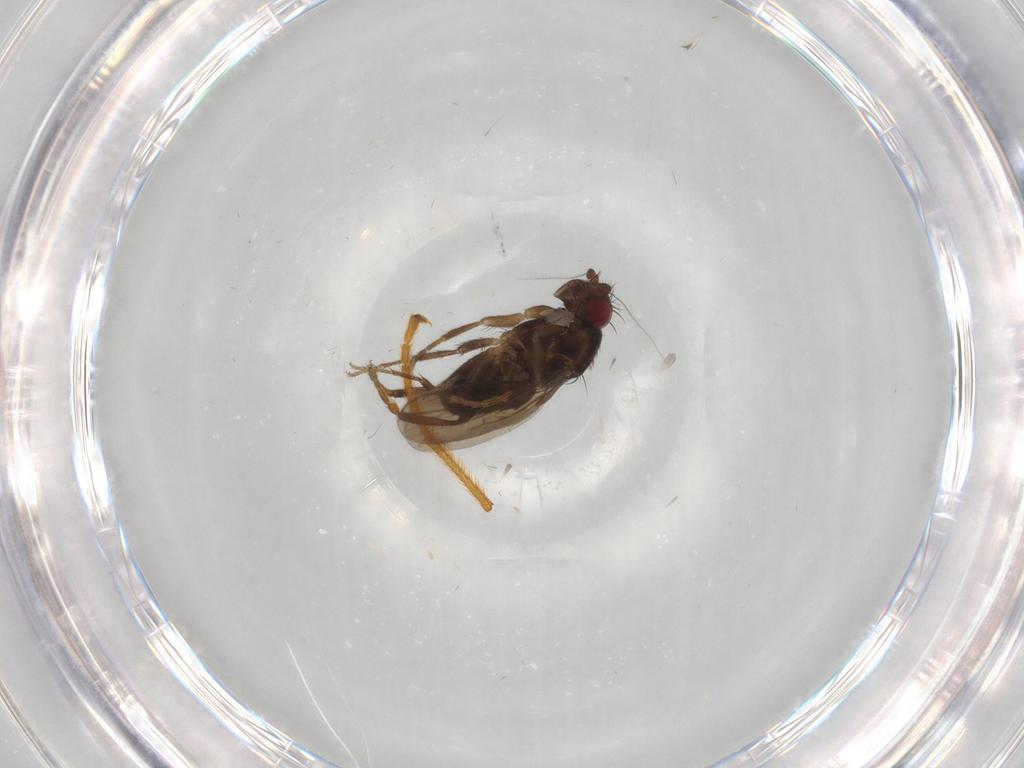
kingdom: Animalia
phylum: Arthropoda
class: Insecta
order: Diptera
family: Sphaeroceridae
